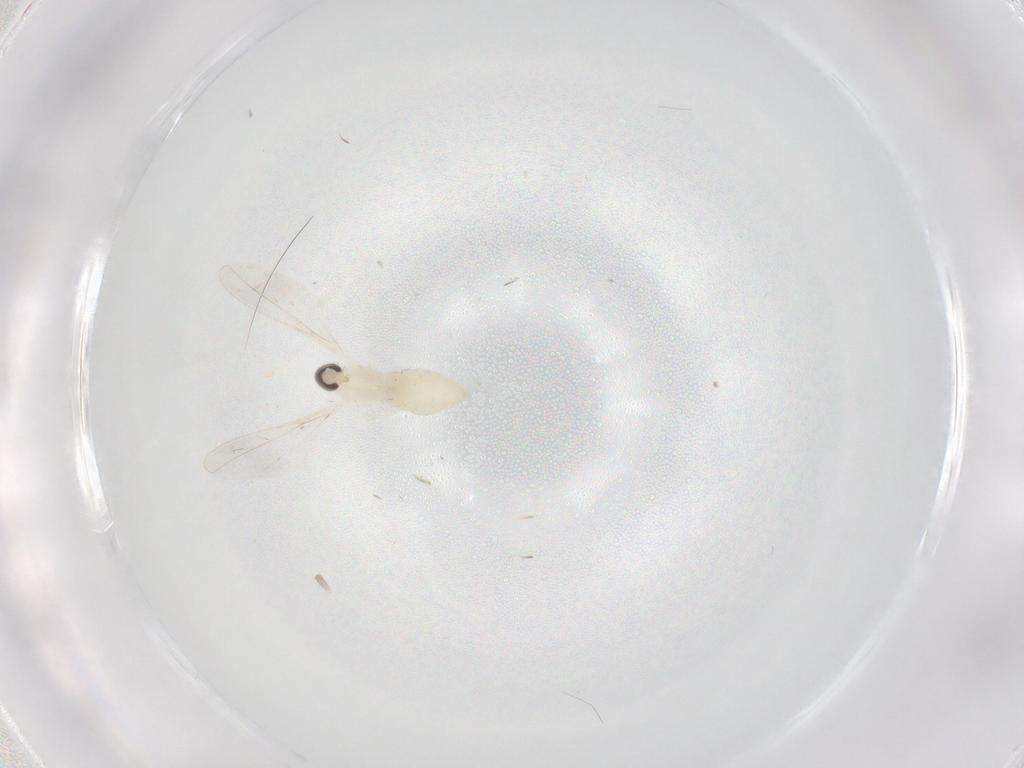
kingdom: Animalia
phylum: Arthropoda
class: Insecta
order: Diptera
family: Cecidomyiidae
